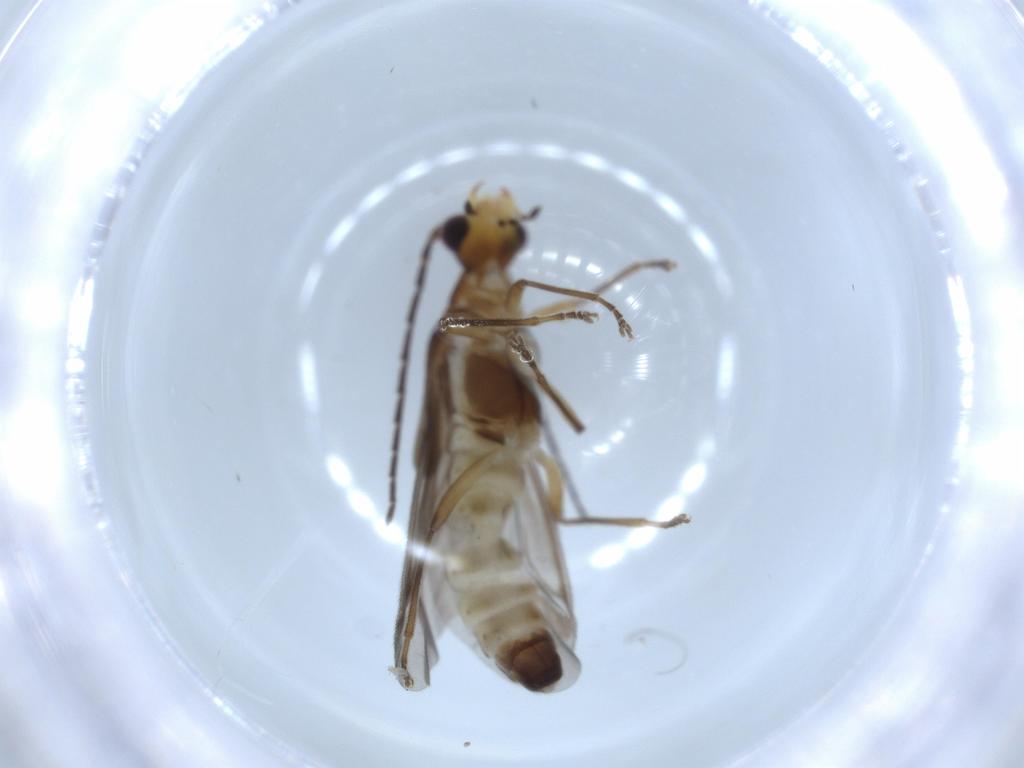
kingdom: Animalia
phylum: Arthropoda
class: Insecta
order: Coleoptera
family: Cantharidae
